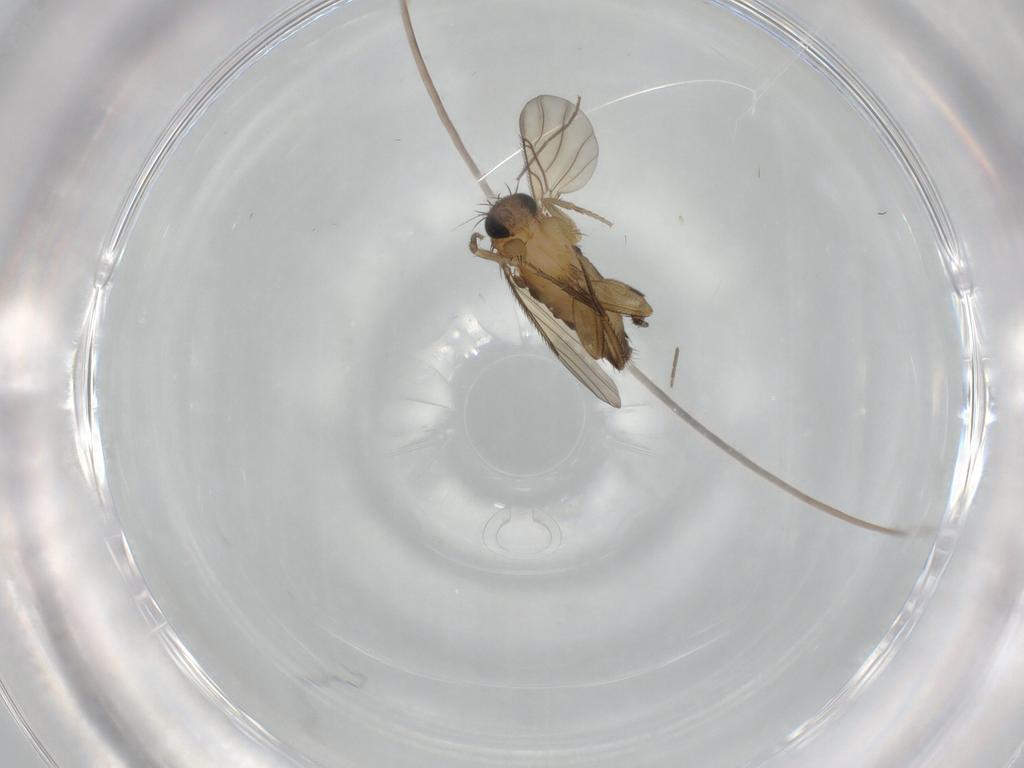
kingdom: Animalia
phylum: Arthropoda
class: Insecta
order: Diptera
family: Phoridae
